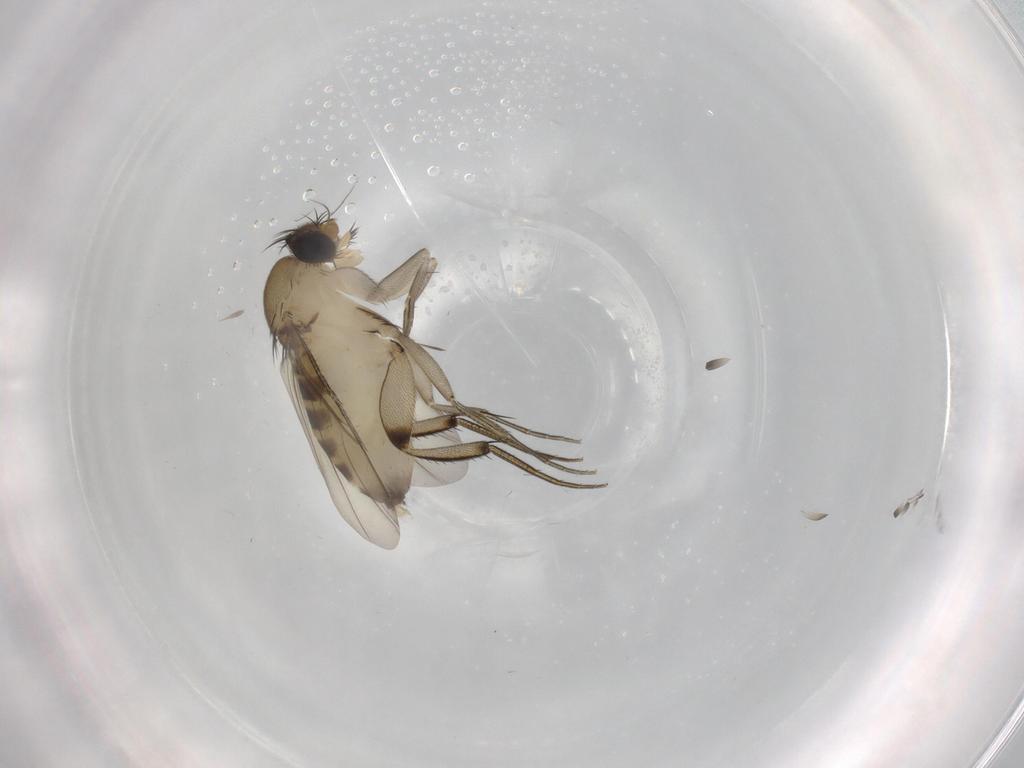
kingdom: Animalia
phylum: Arthropoda
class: Insecta
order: Diptera
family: Phoridae
